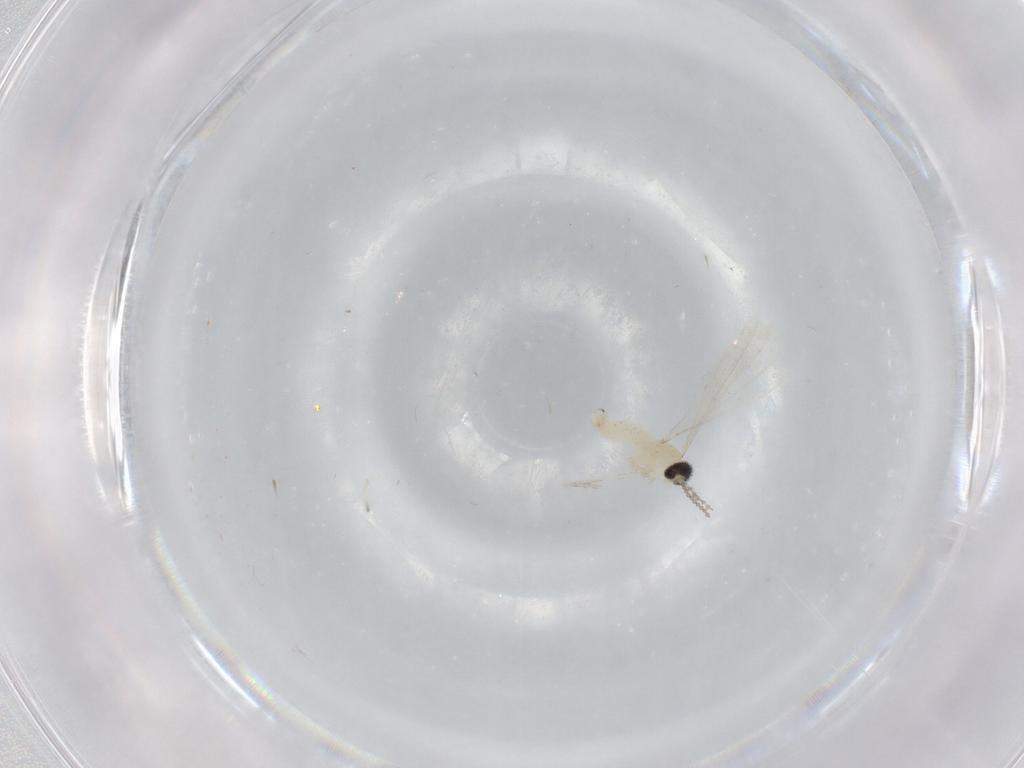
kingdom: Animalia
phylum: Arthropoda
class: Insecta
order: Diptera
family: Cecidomyiidae
